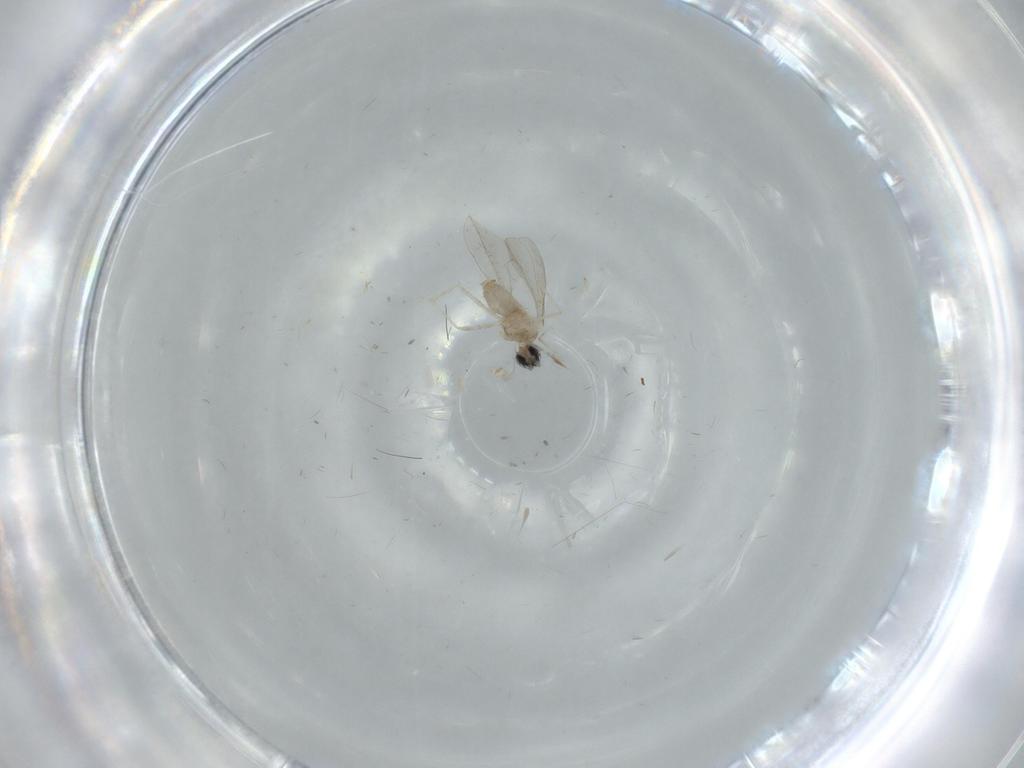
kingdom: Animalia
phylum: Arthropoda
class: Insecta
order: Diptera
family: Cecidomyiidae
